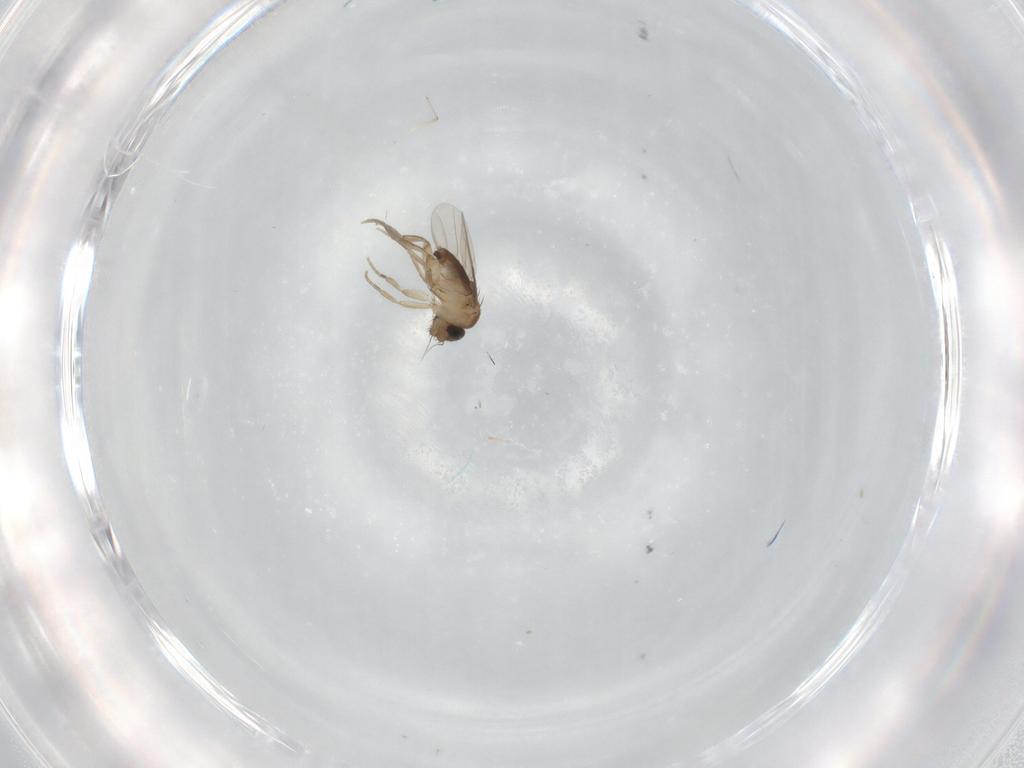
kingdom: Animalia
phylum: Arthropoda
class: Insecta
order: Diptera
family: Phoridae
